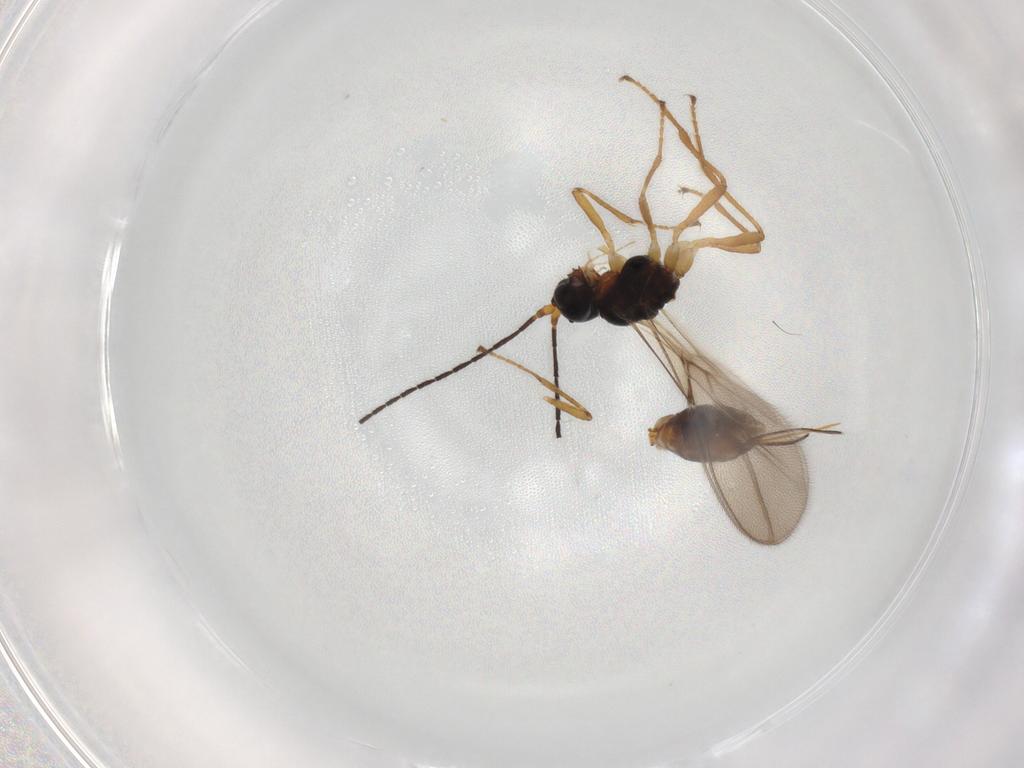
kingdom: Animalia
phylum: Arthropoda
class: Insecta
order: Hymenoptera
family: Braconidae
